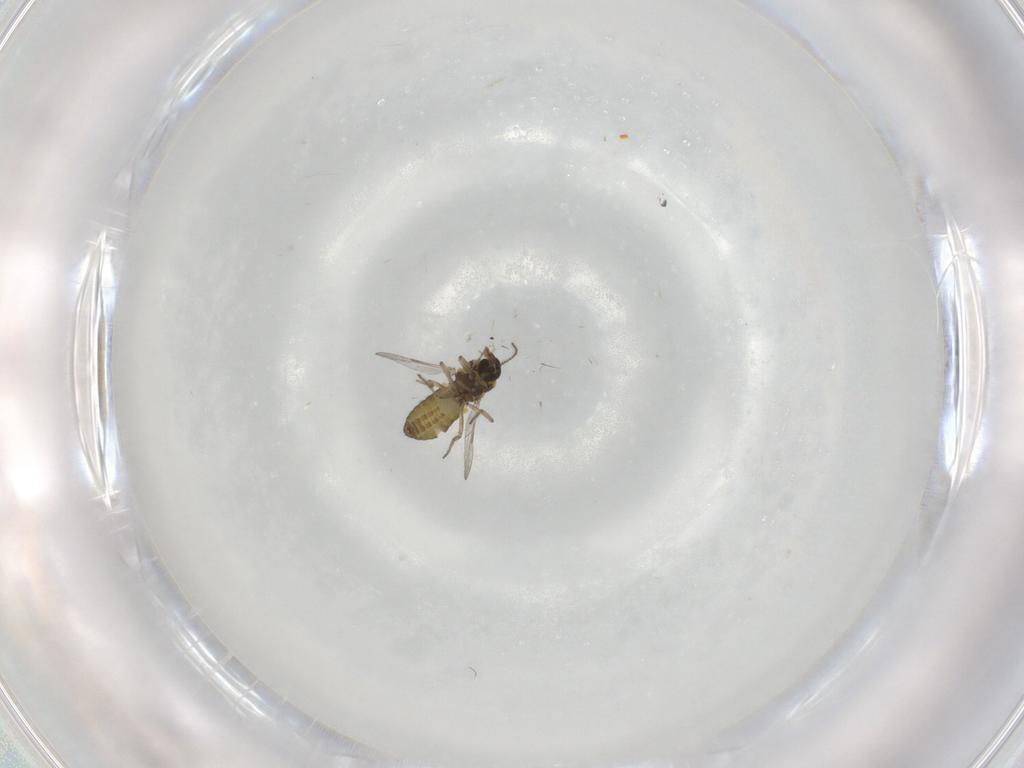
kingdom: Animalia
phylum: Arthropoda
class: Insecta
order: Diptera
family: Ceratopogonidae
